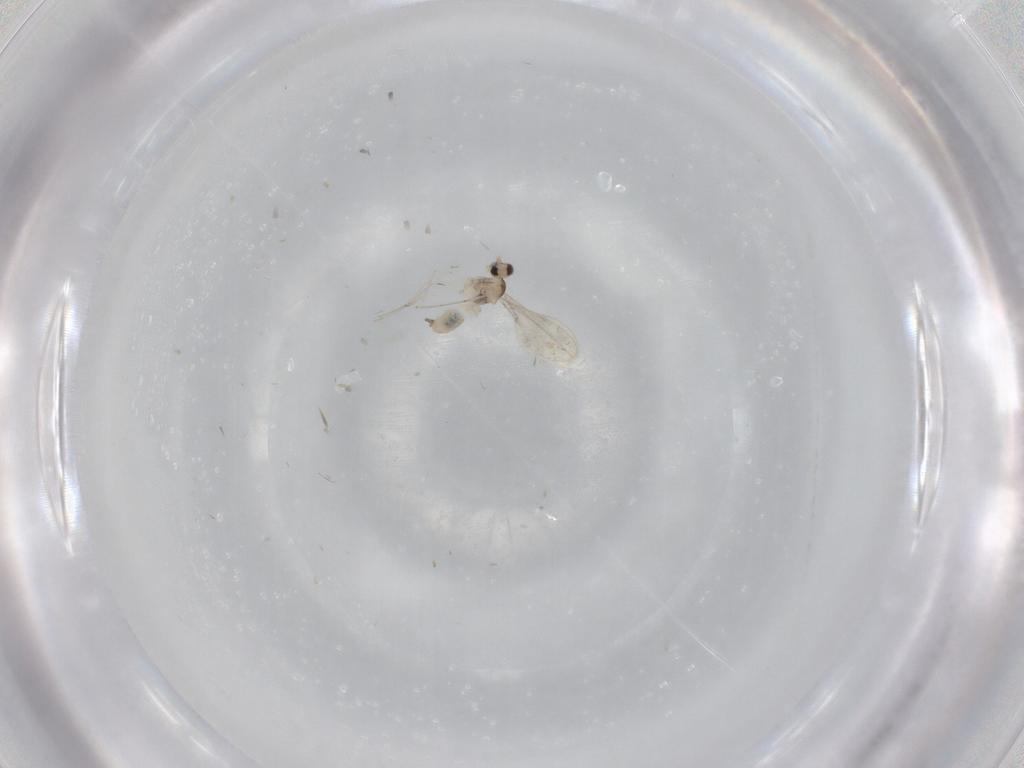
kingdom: Animalia
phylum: Arthropoda
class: Insecta
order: Diptera
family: Cecidomyiidae
